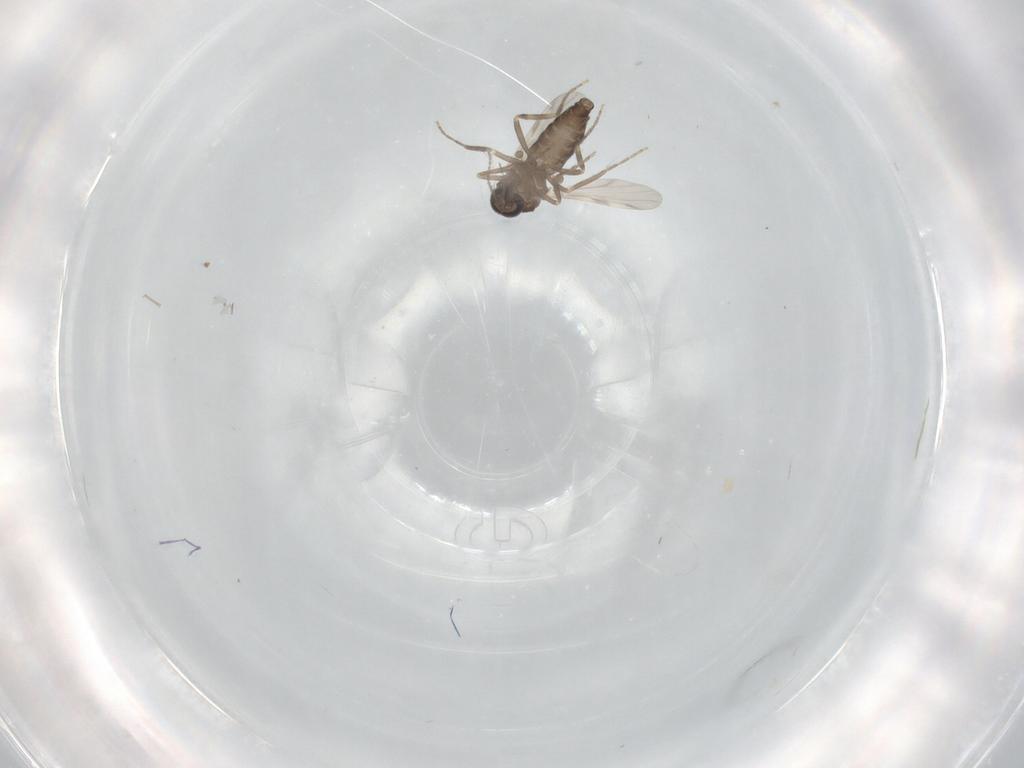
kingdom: Animalia
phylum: Arthropoda
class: Insecta
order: Diptera
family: Ceratopogonidae
